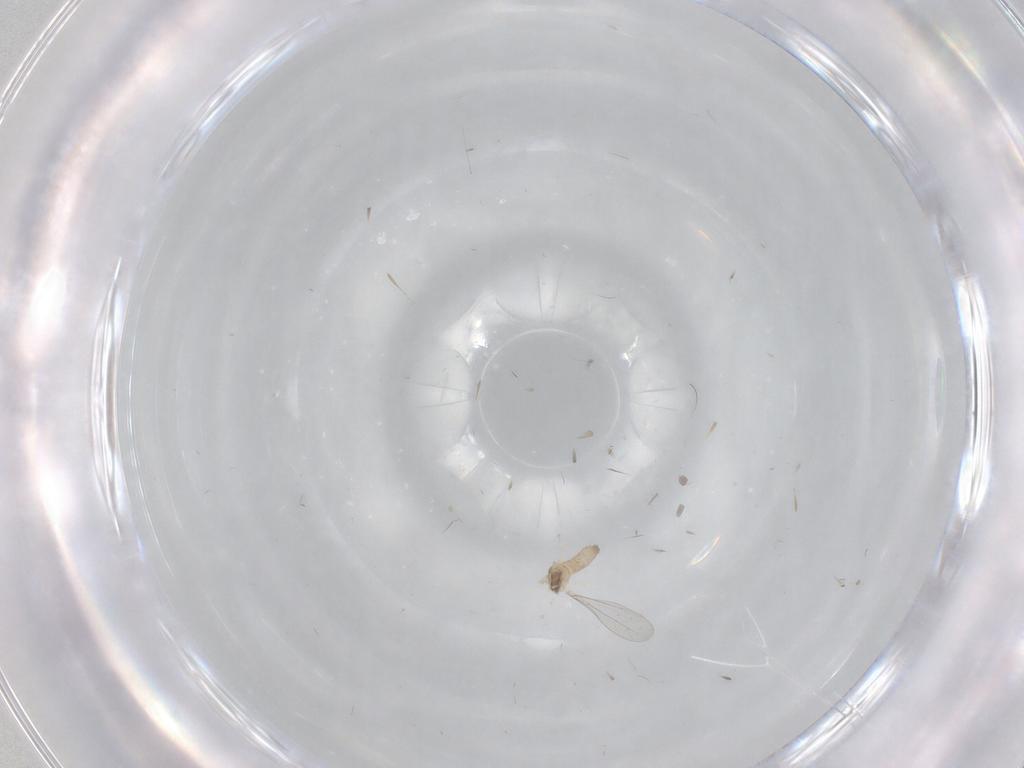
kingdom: Animalia
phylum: Arthropoda
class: Insecta
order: Diptera
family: Cecidomyiidae
